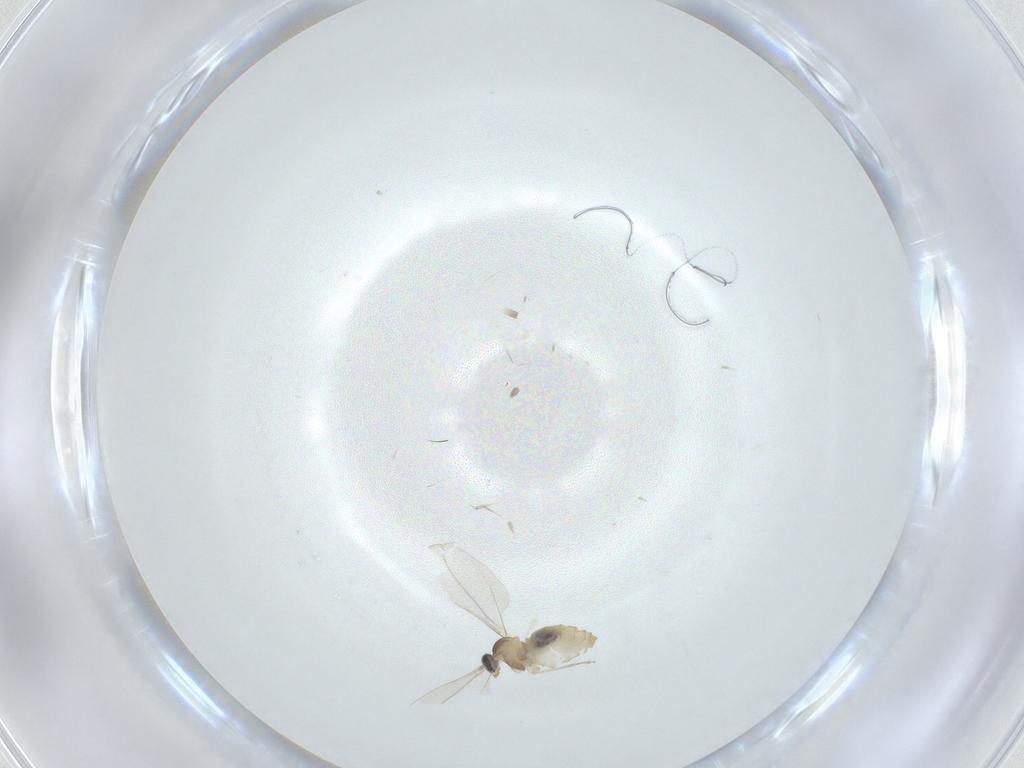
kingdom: Animalia
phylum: Arthropoda
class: Insecta
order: Diptera
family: Cecidomyiidae
